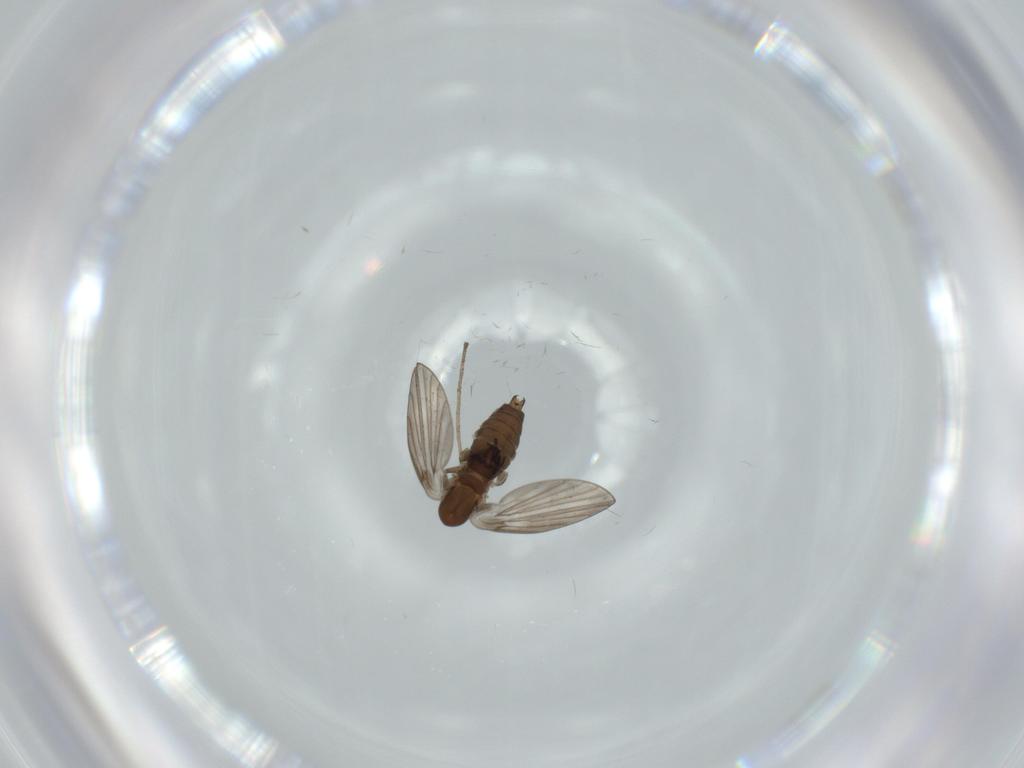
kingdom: Animalia
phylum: Arthropoda
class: Insecta
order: Diptera
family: Psychodidae
